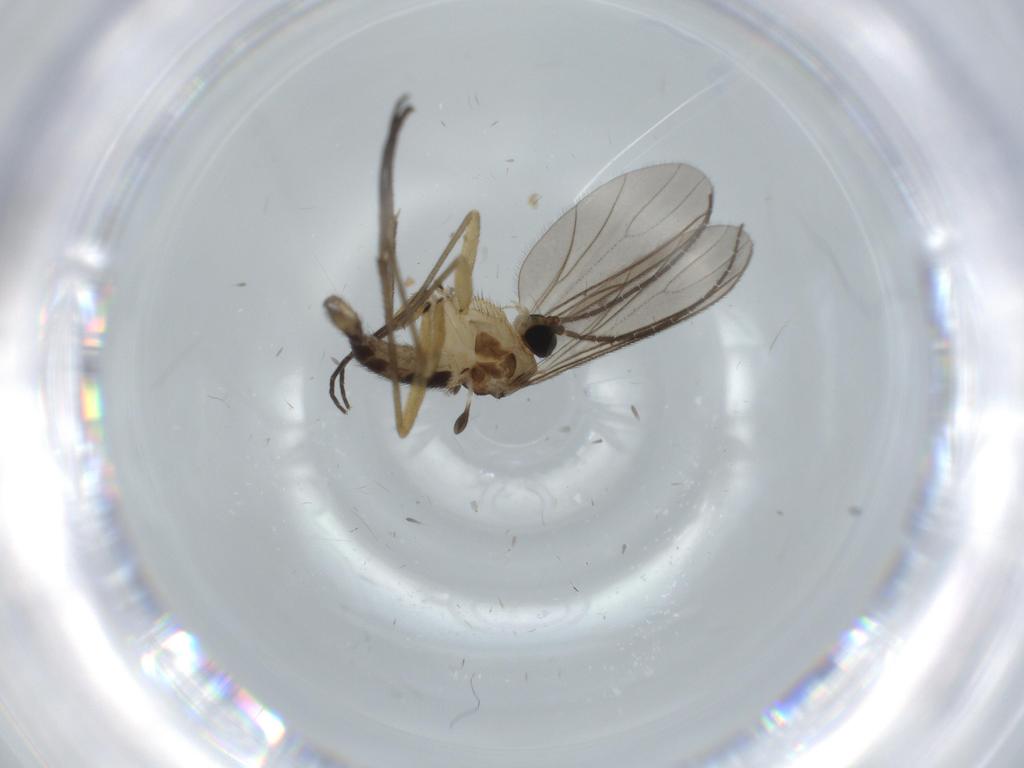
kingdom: Animalia
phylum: Arthropoda
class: Insecta
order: Diptera
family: Sciaridae
